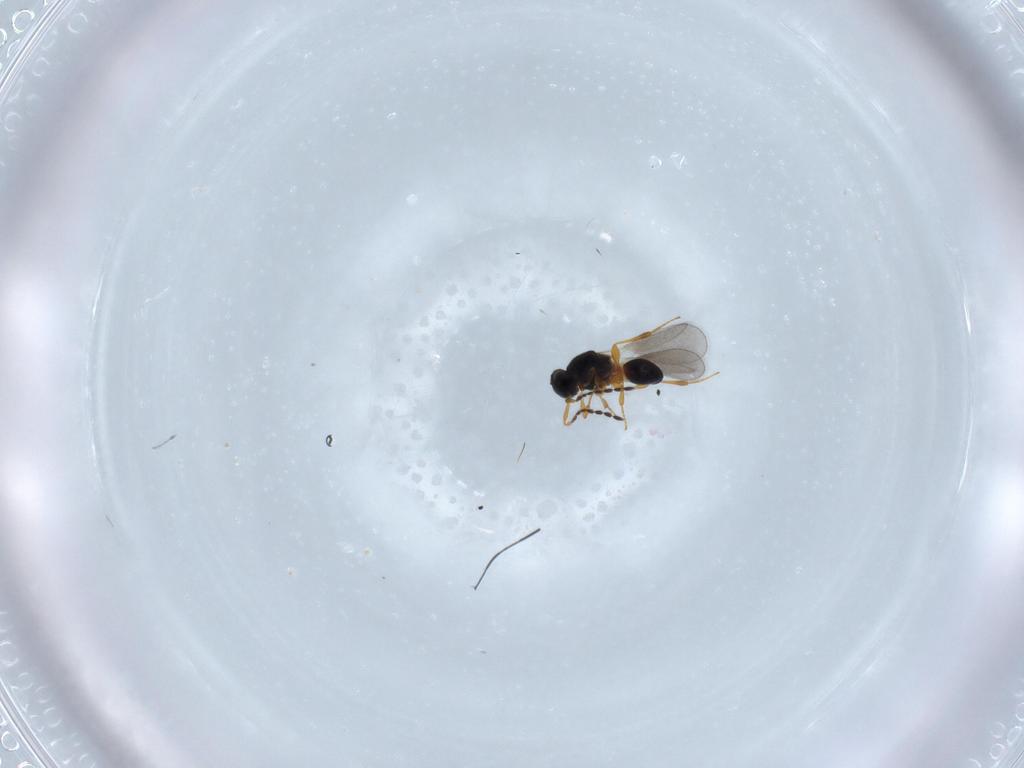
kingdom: Animalia
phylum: Arthropoda
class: Insecta
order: Hymenoptera
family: Platygastridae
